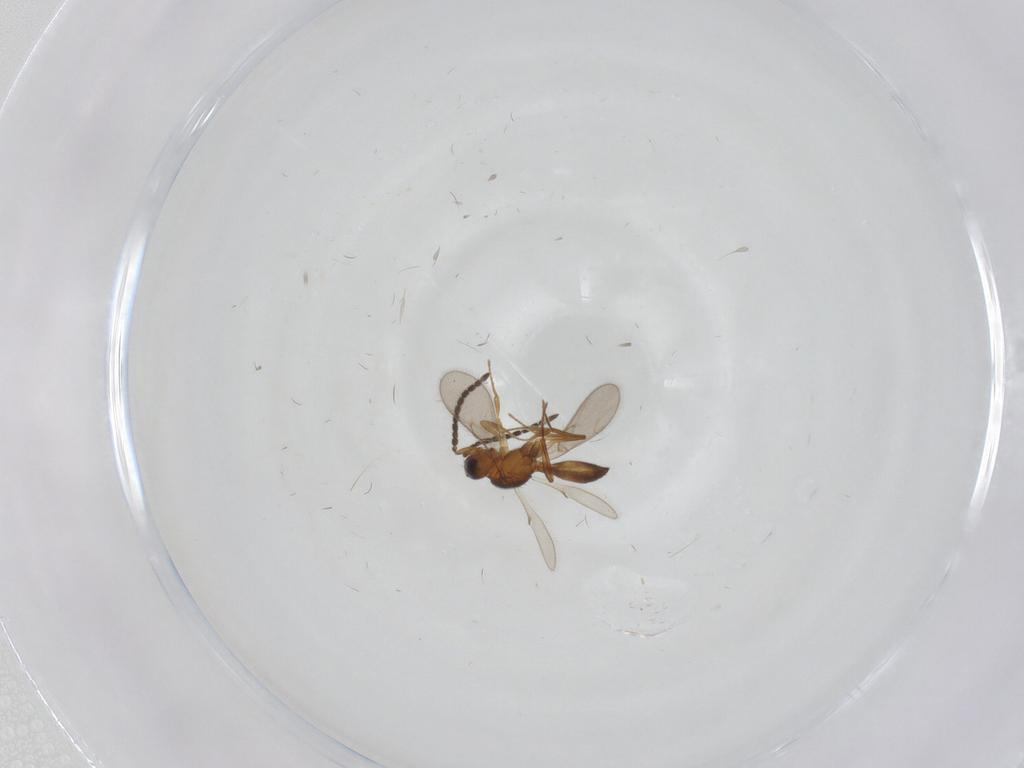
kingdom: Animalia
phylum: Arthropoda
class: Insecta
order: Hymenoptera
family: Scelionidae
